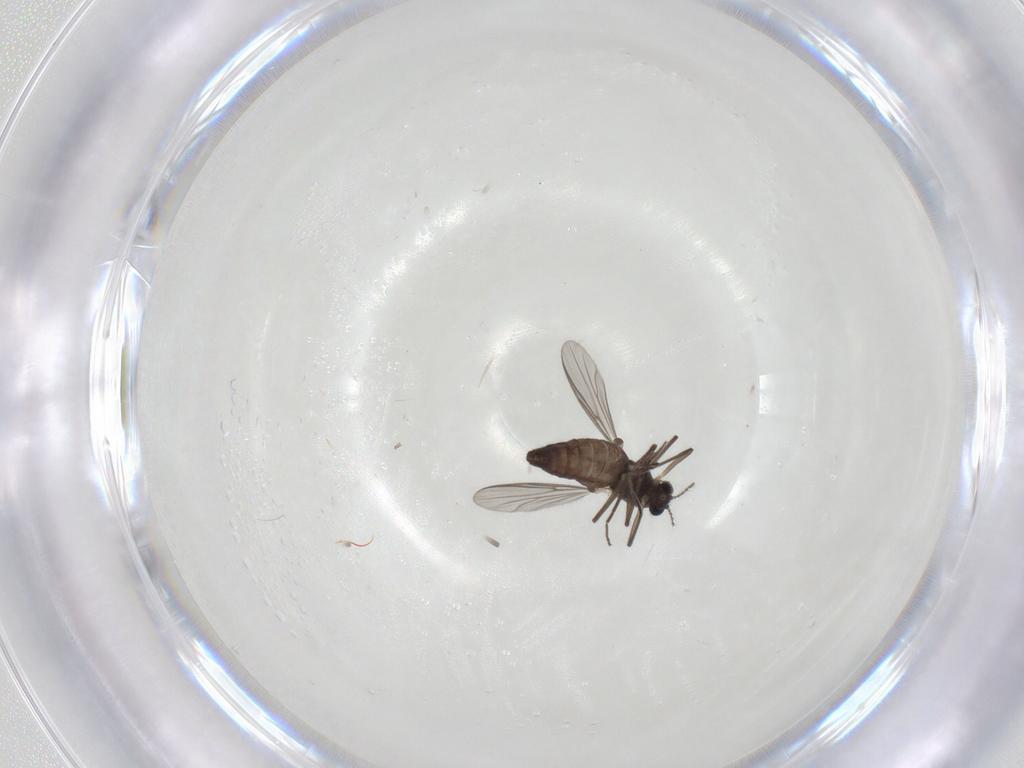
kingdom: Animalia
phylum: Arthropoda
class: Insecta
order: Diptera
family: Chironomidae
